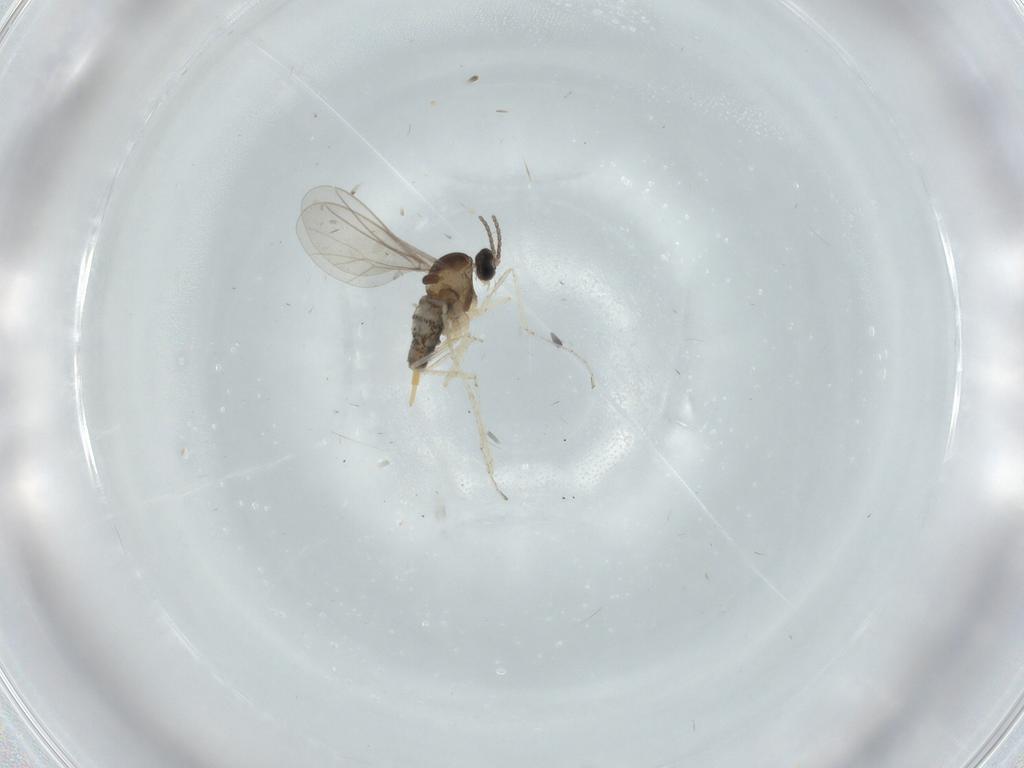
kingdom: Animalia
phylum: Arthropoda
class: Insecta
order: Diptera
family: Cecidomyiidae
